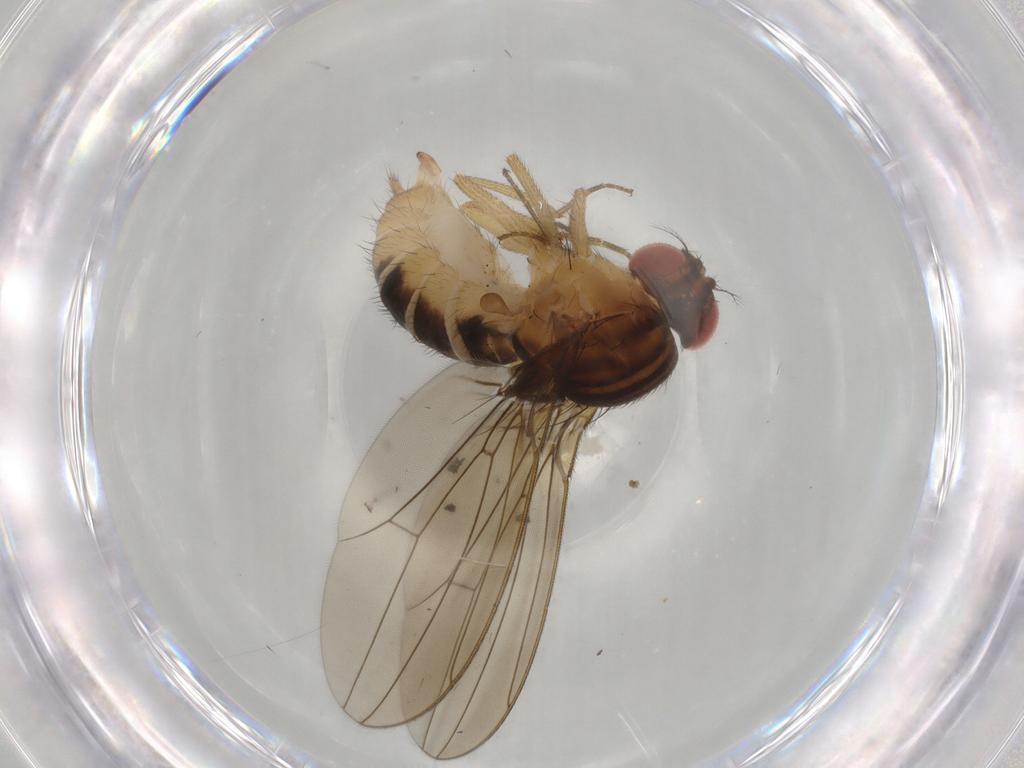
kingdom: Animalia
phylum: Arthropoda
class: Insecta
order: Diptera
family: Drosophilidae
